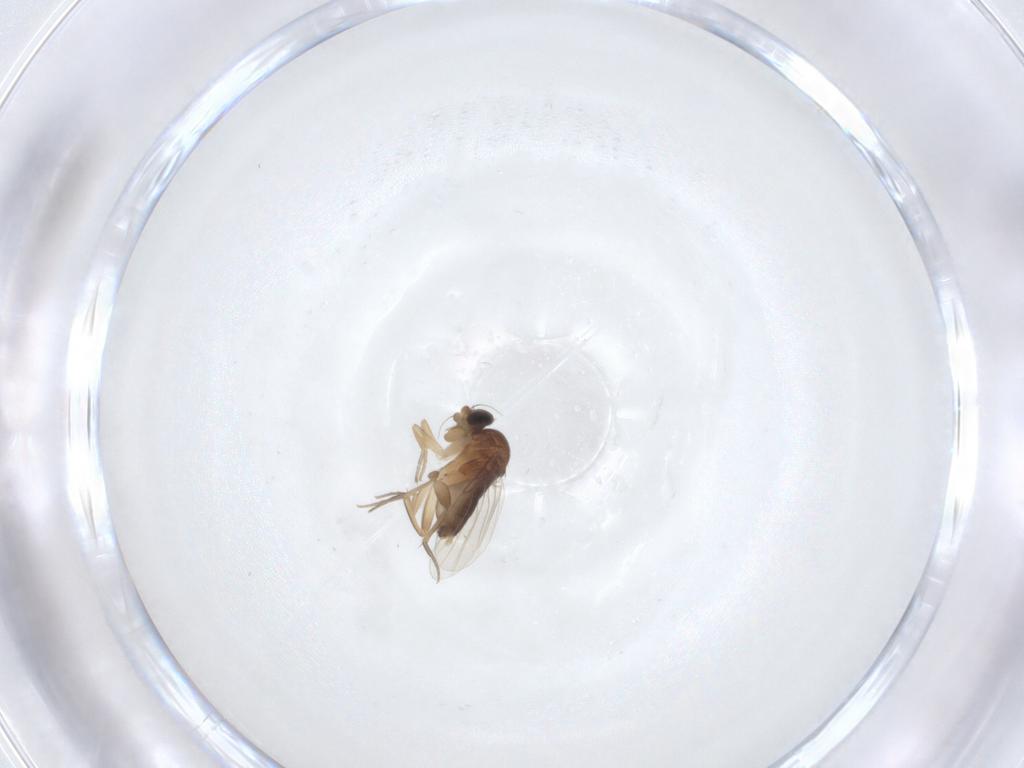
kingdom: Animalia
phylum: Arthropoda
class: Insecta
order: Diptera
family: Phoridae
